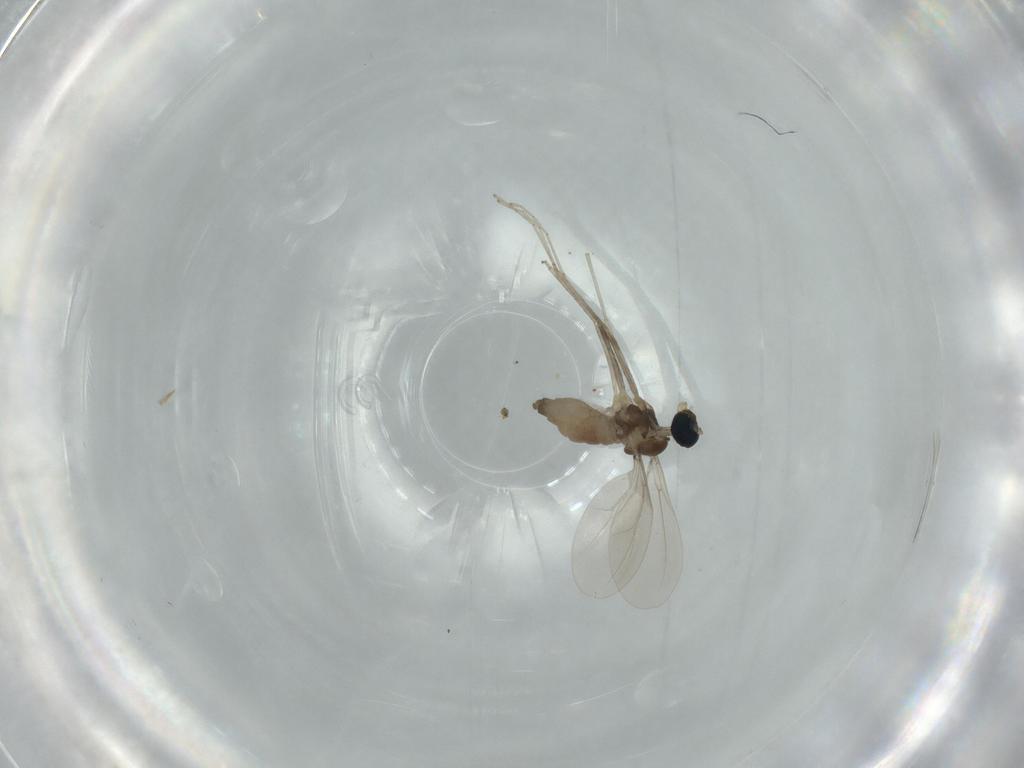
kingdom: Animalia
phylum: Arthropoda
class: Insecta
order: Diptera
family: Cecidomyiidae
